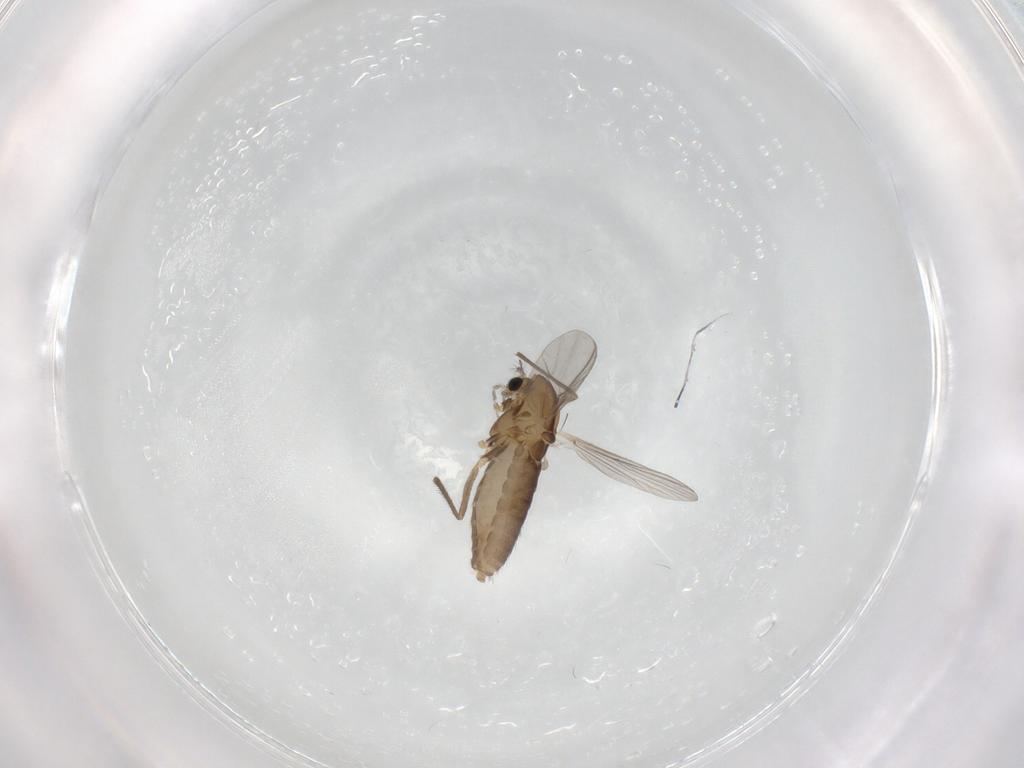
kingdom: Animalia
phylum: Arthropoda
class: Insecta
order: Diptera
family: Chironomidae
